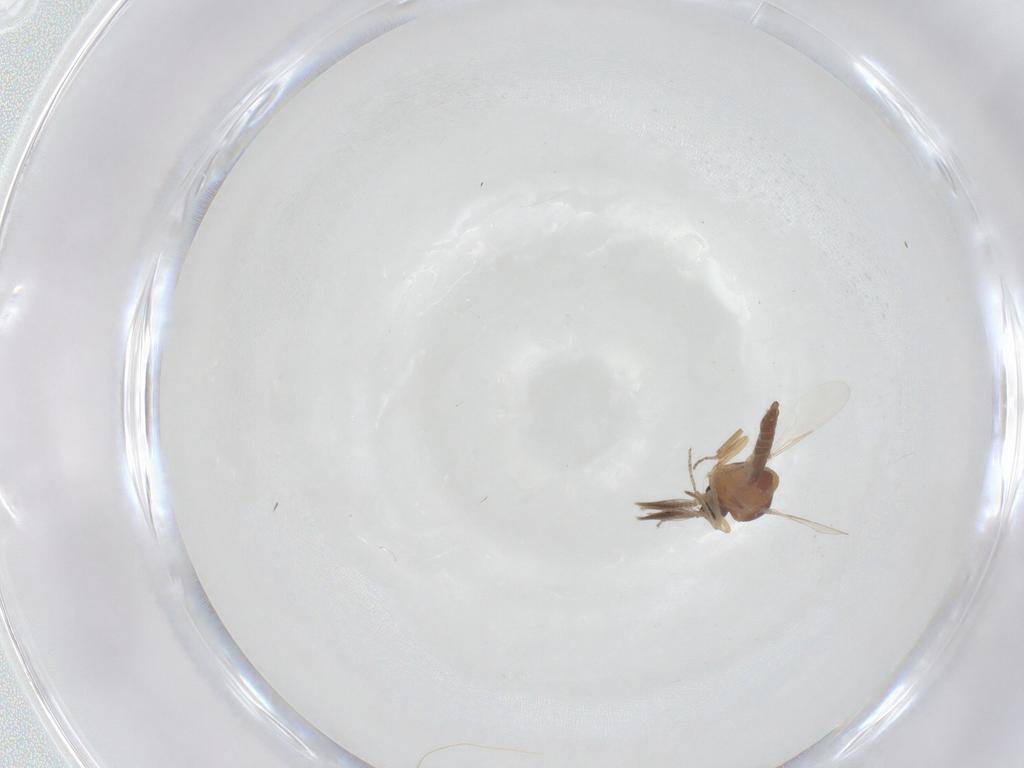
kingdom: Animalia
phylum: Arthropoda
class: Insecta
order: Diptera
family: Ceratopogonidae
